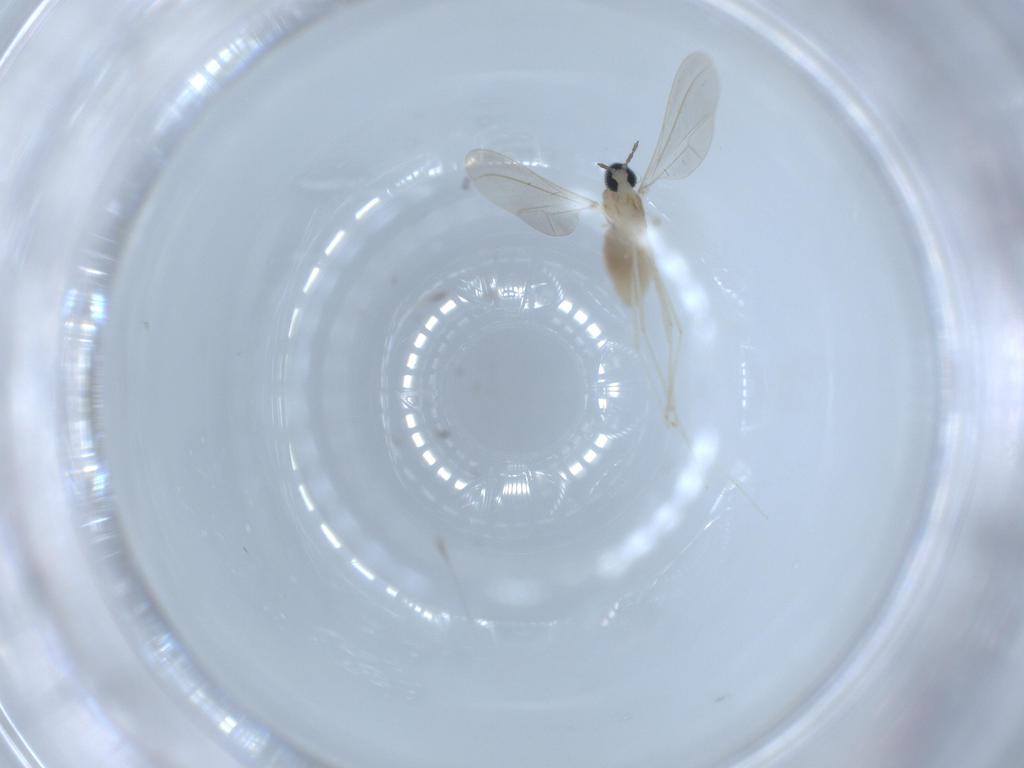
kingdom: Animalia
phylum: Arthropoda
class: Insecta
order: Diptera
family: Cecidomyiidae
